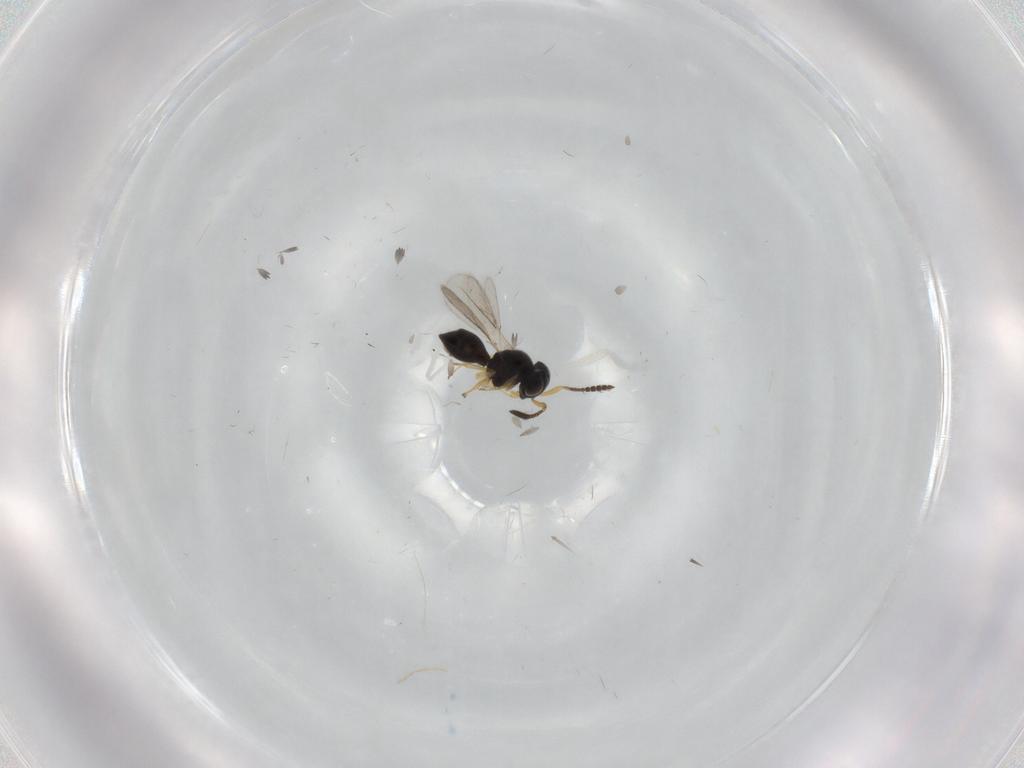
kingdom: Animalia
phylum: Arthropoda
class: Insecta
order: Hymenoptera
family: Scelionidae
